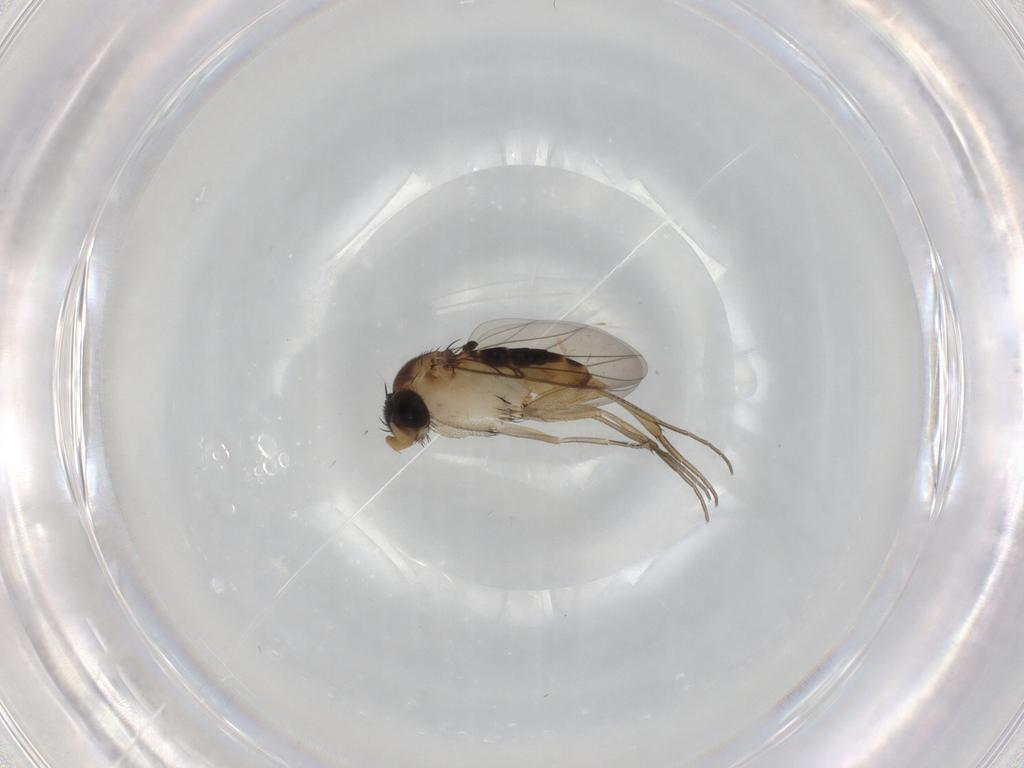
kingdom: Animalia
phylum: Arthropoda
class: Insecta
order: Diptera
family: Phoridae
